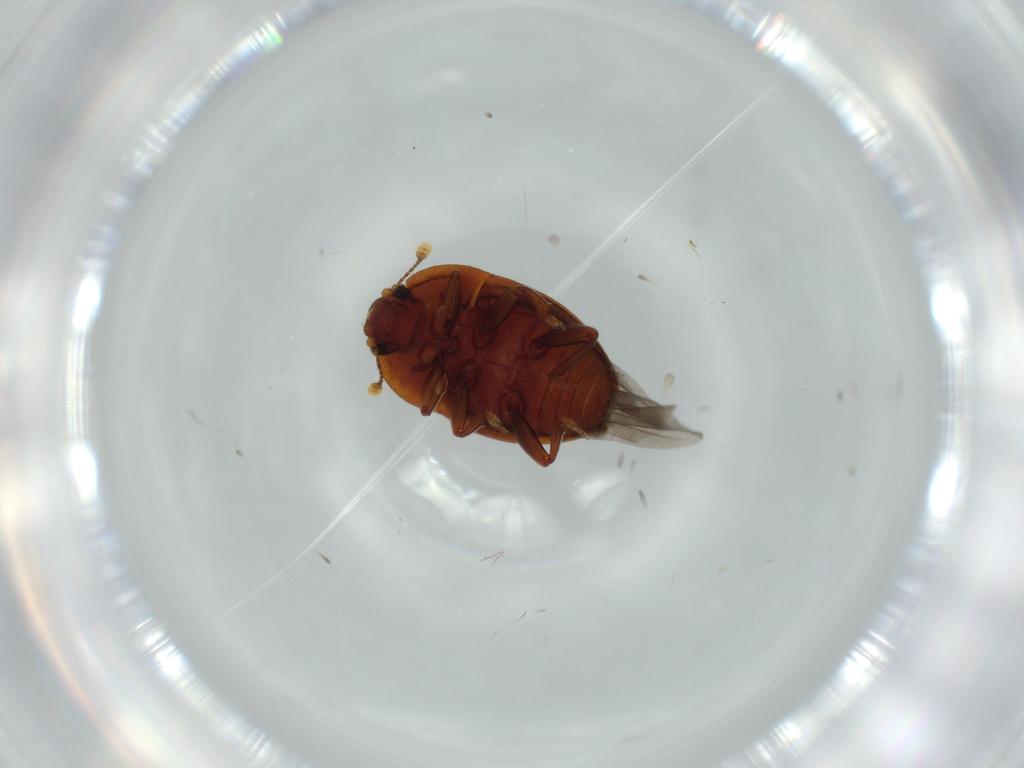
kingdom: Animalia
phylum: Arthropoda
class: Insecta
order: Coleoptera
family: Nitidulidae
